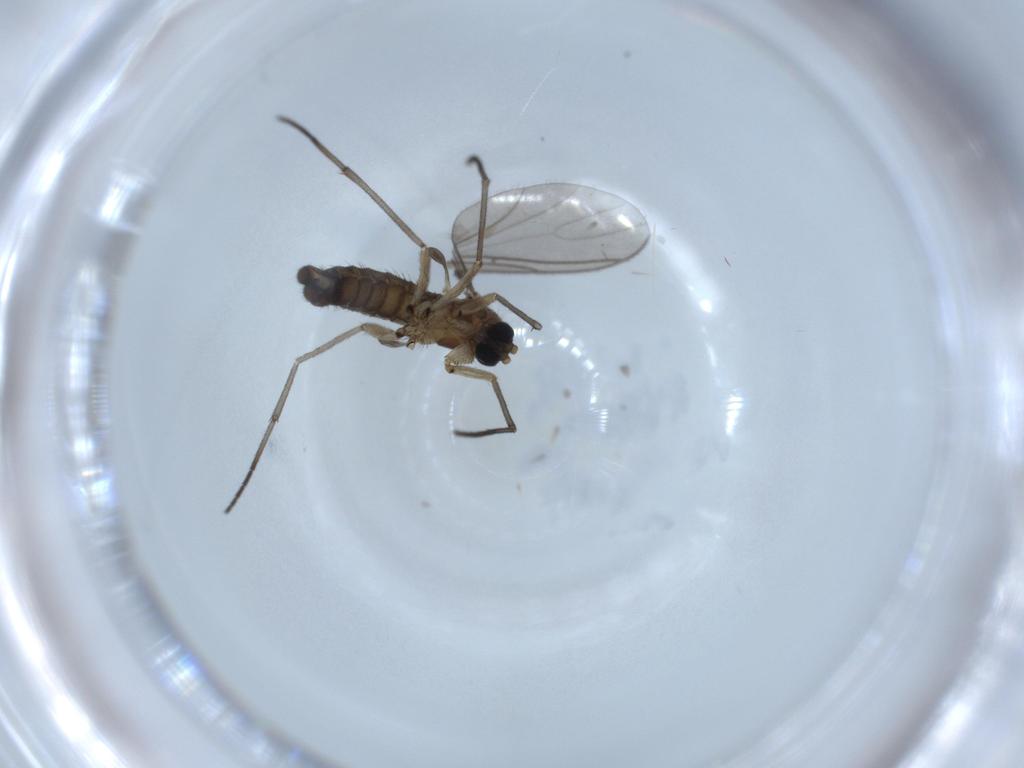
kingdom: Animalia
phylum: Arthropoda
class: Insecta
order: Diptera
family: Sciaridae
